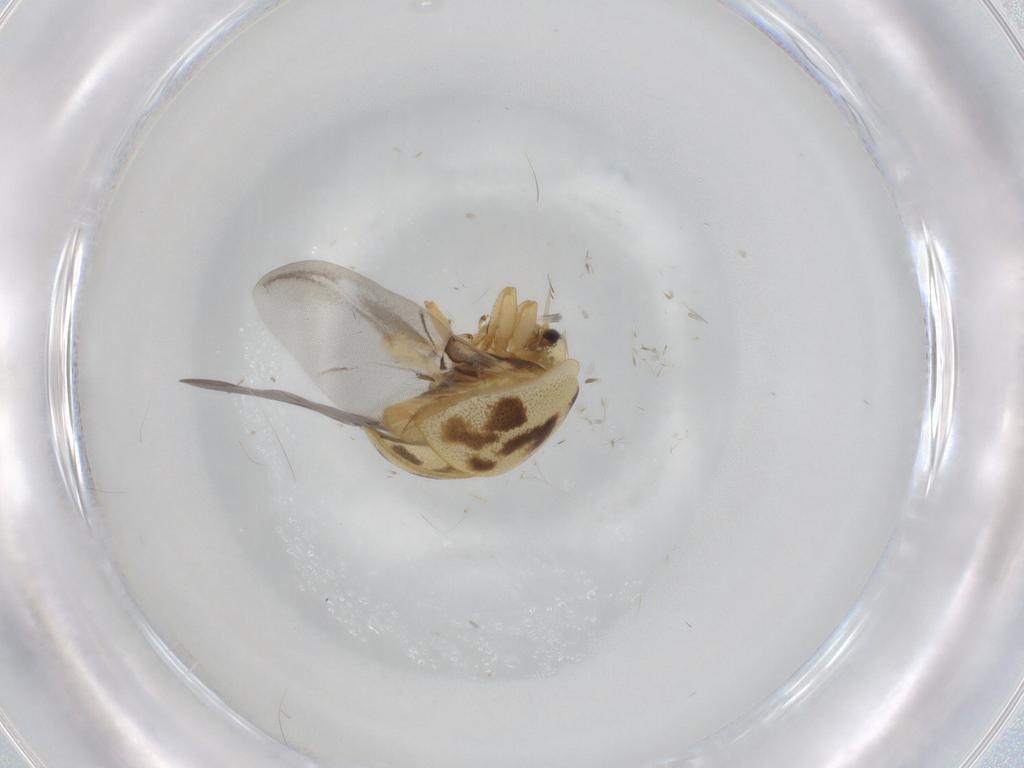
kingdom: Animalia
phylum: Arthropoda
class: Insecta
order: Coleoptera
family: Coccinellidae
